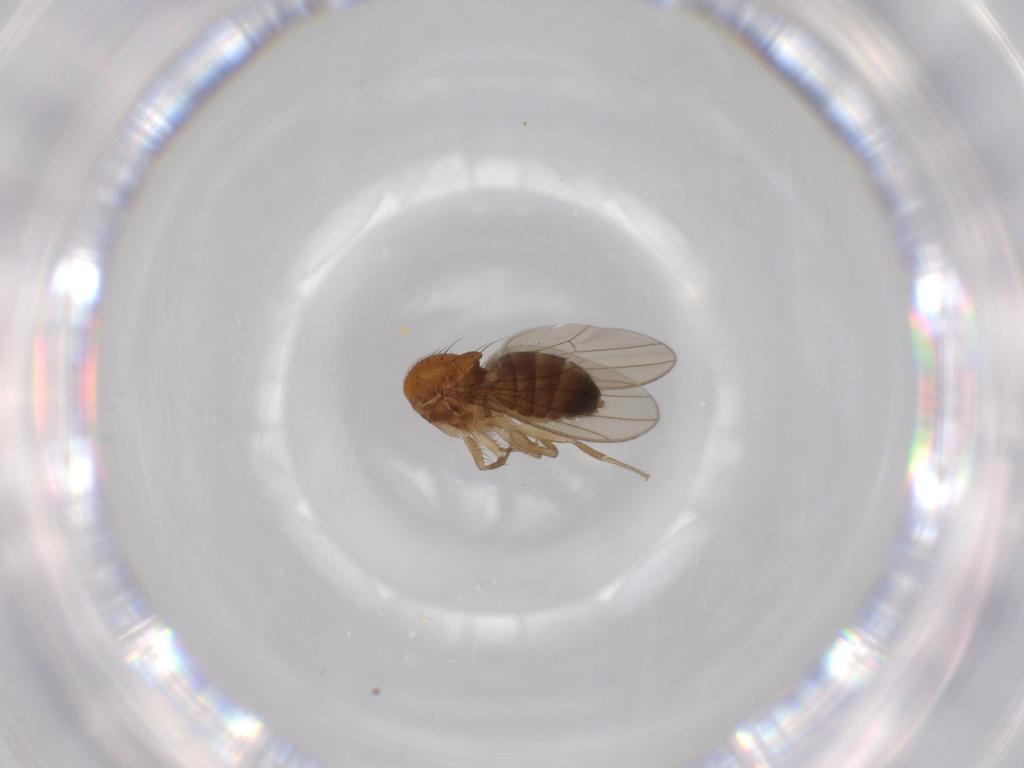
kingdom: Animalia
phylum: Arthropoda
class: Insecta
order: Diptera
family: Drosophilidae
